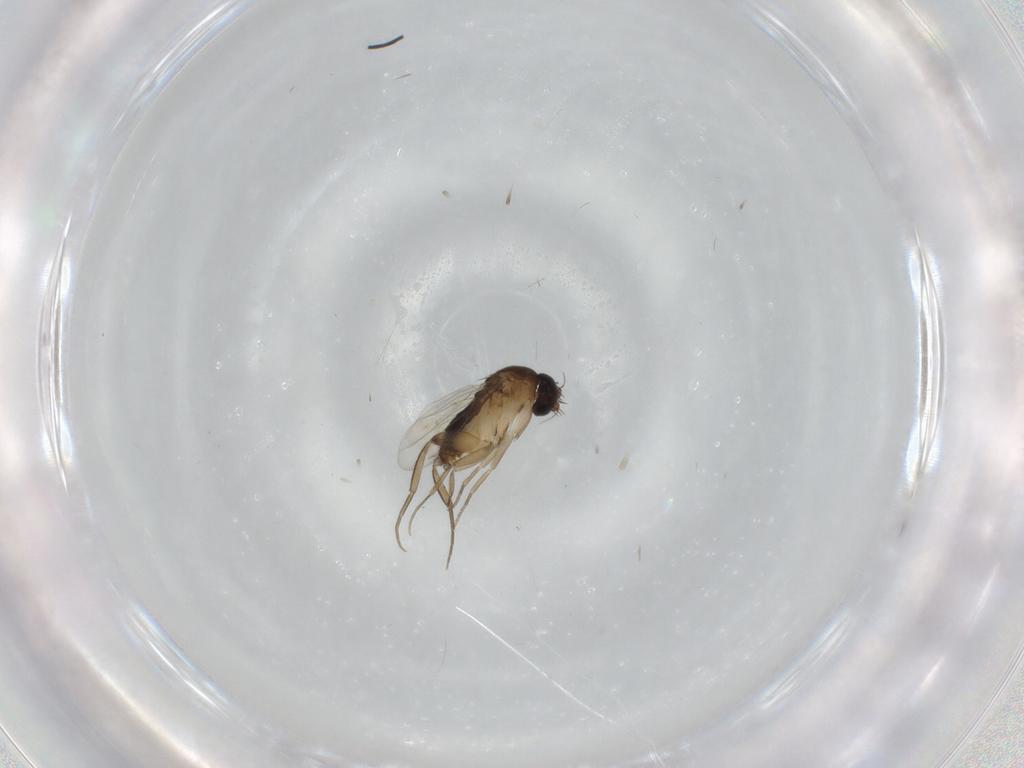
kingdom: Animalia
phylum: Arthropoda
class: Insecta
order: Diptera
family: Phoridae
